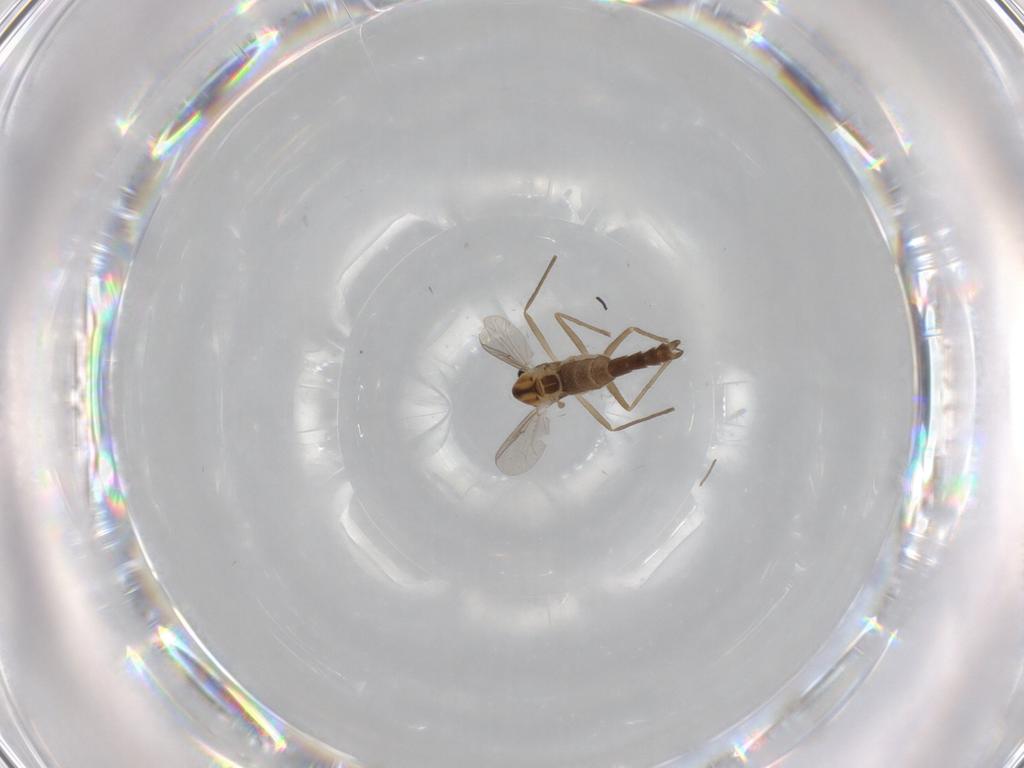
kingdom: Animalia
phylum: Arthropoda
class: Insecta
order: Diptera
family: Chironomidae
